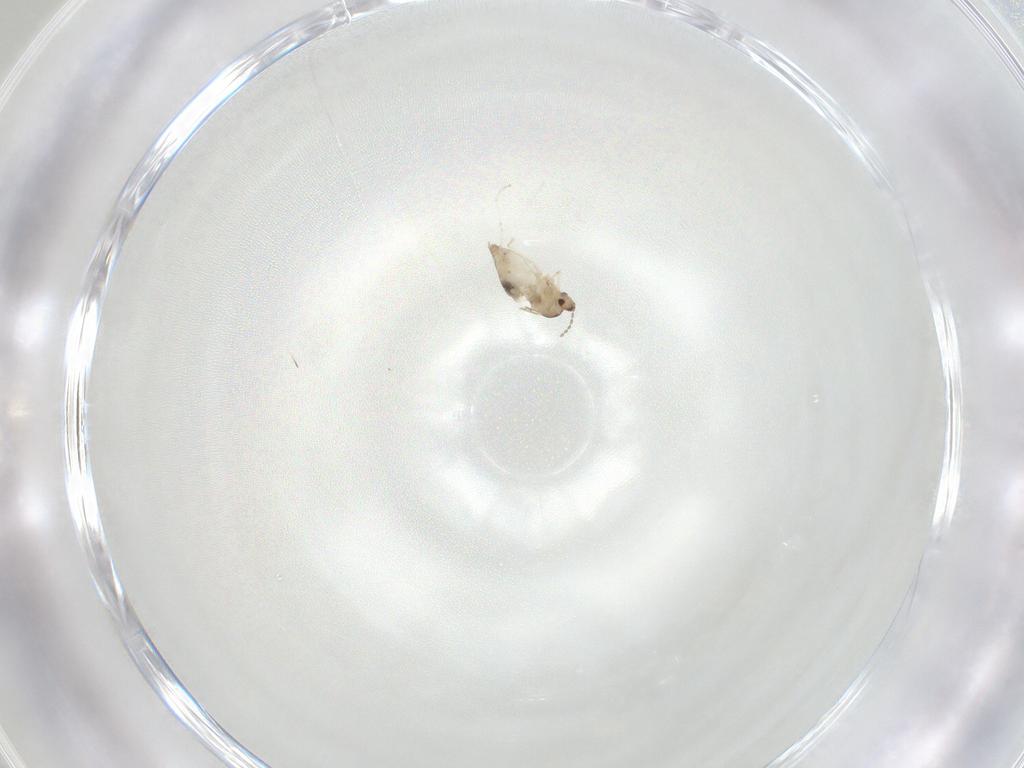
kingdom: Animalia
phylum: Arthropoda
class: Insecta
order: Diptera
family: Cecidomyiidae
